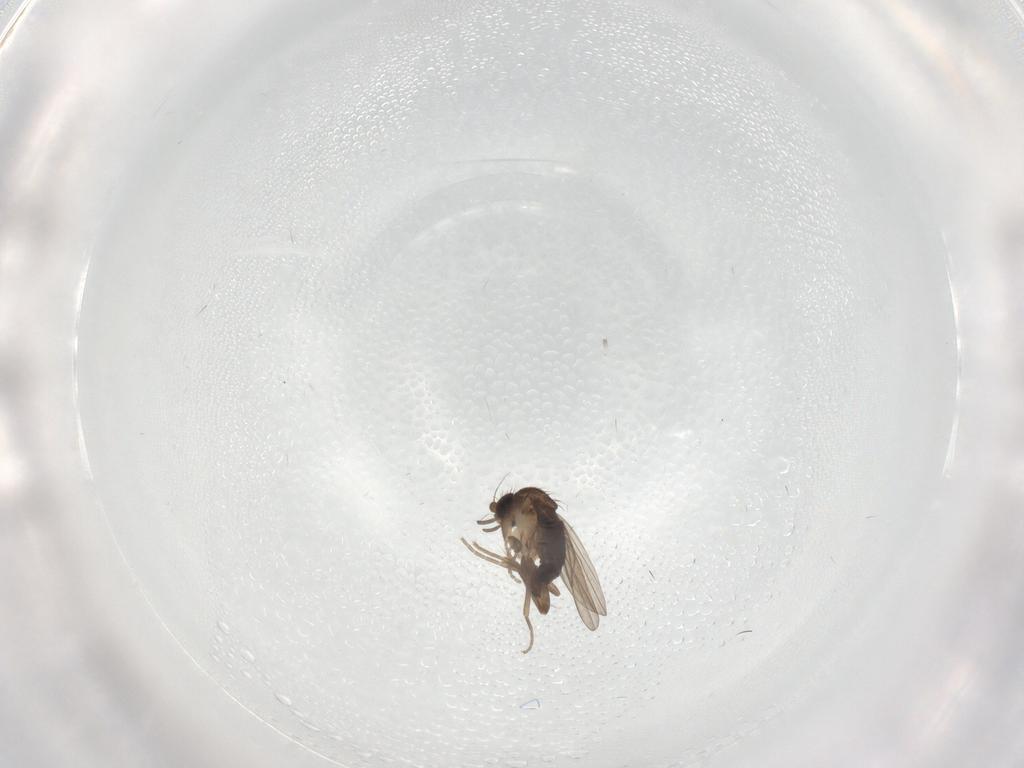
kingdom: Animalia
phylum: Arthropoda
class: Insecta
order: Diptera
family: Cecidomyiidae
